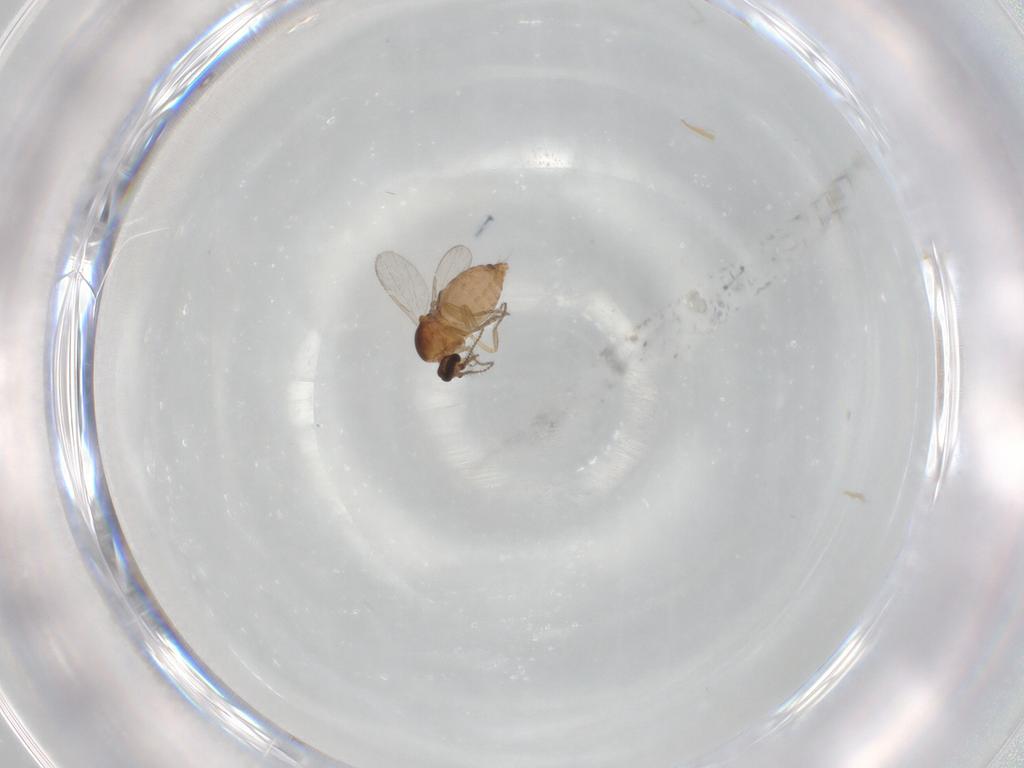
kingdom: Animalia
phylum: Arthropoda
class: Insecta
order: Diptera
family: Ceratopogonidae
